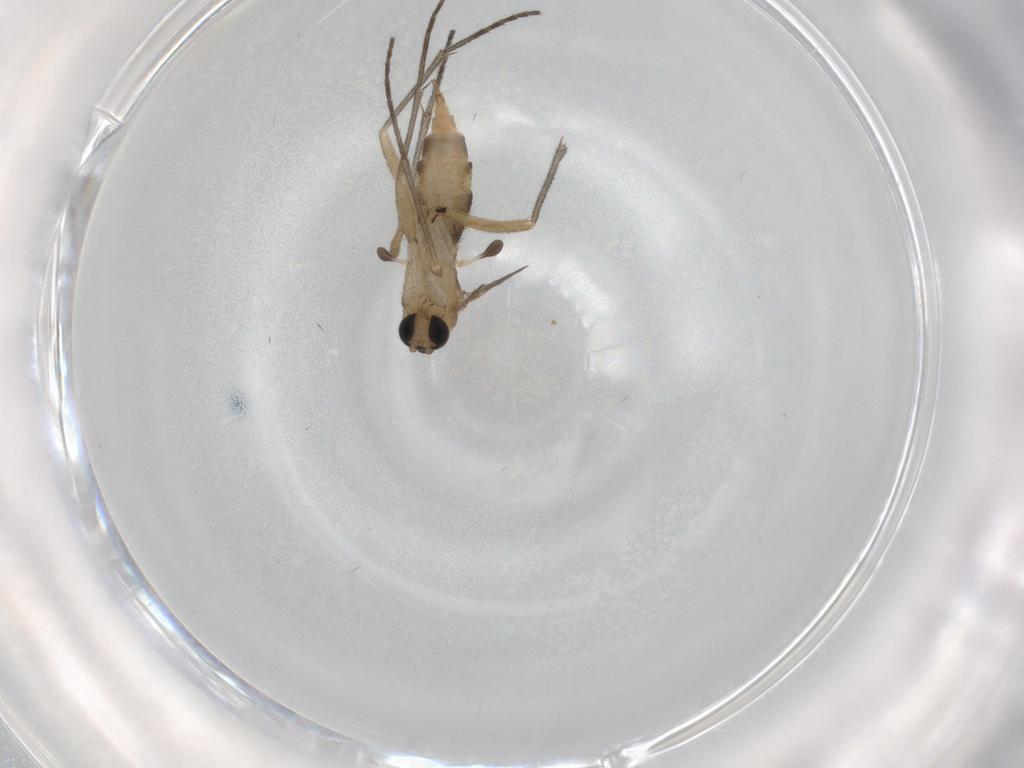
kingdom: Animalia
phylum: Arthropoda
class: Insecta
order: Diptera
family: Sciaridae
